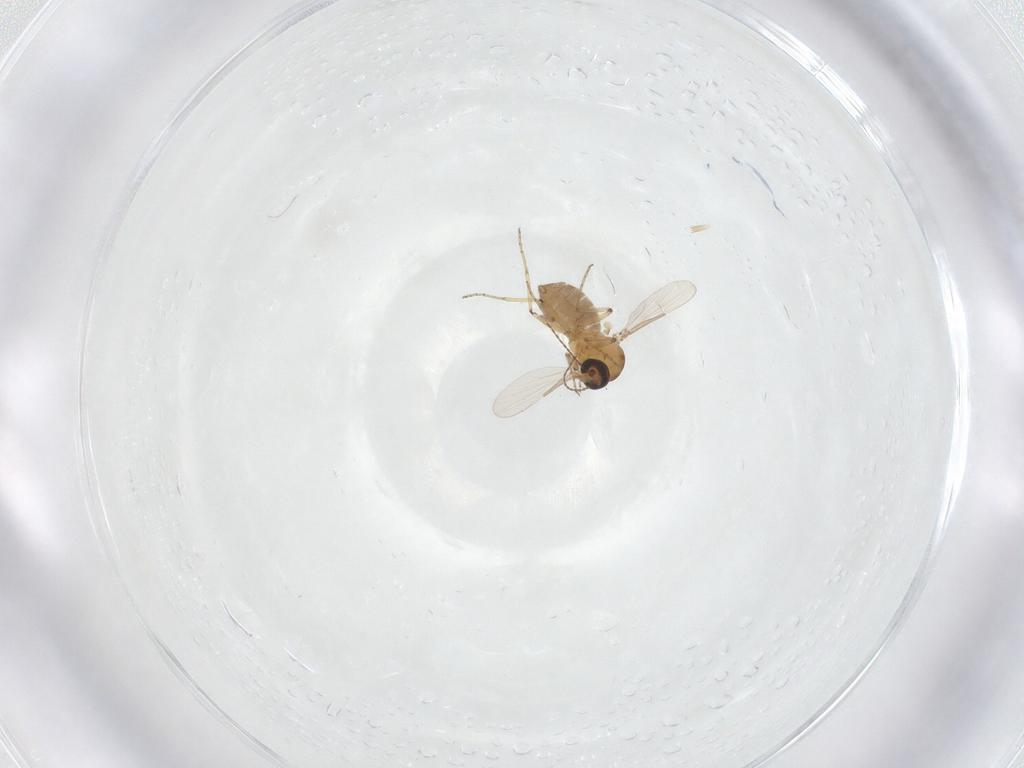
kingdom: Animalia
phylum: Arthropoda
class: Insecta
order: Diptera
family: Ceratopogonidae
